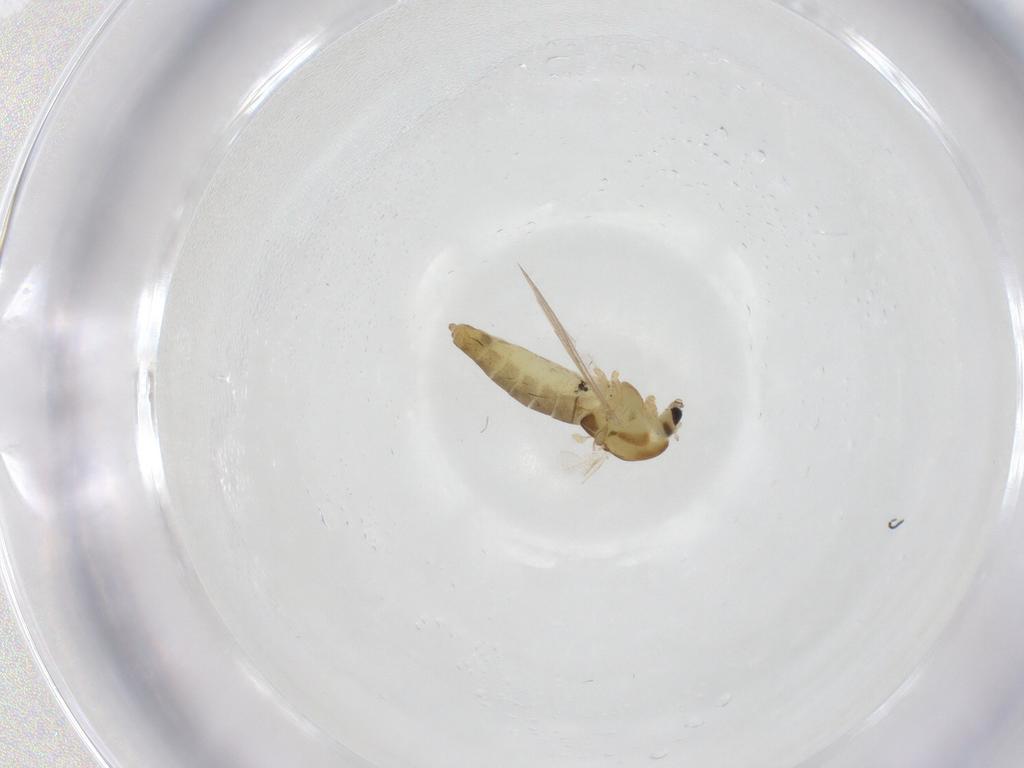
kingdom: Animalia
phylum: Arthropoda
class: Insecta
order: Diptera
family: Chironomidae
